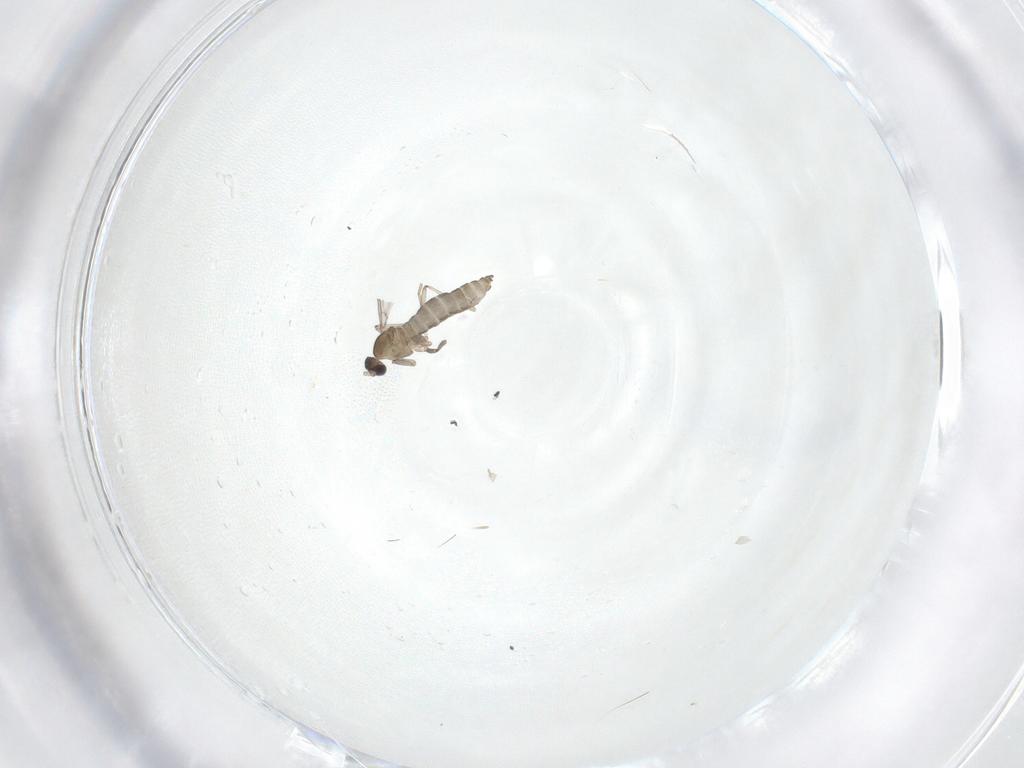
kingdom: Animalia
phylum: Arthropoda
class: Insecta
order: Diptera
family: Cecidomyiidae
